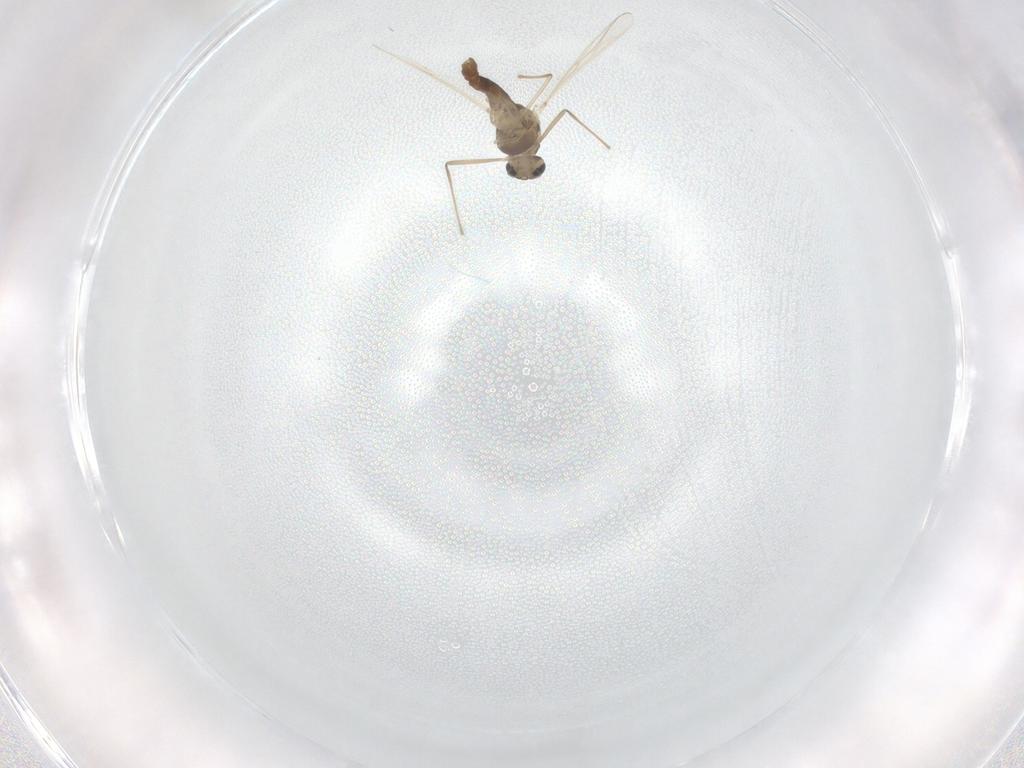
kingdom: Animalia
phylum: Arthropoda
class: Insecta
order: Diptera
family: Chironomidae
